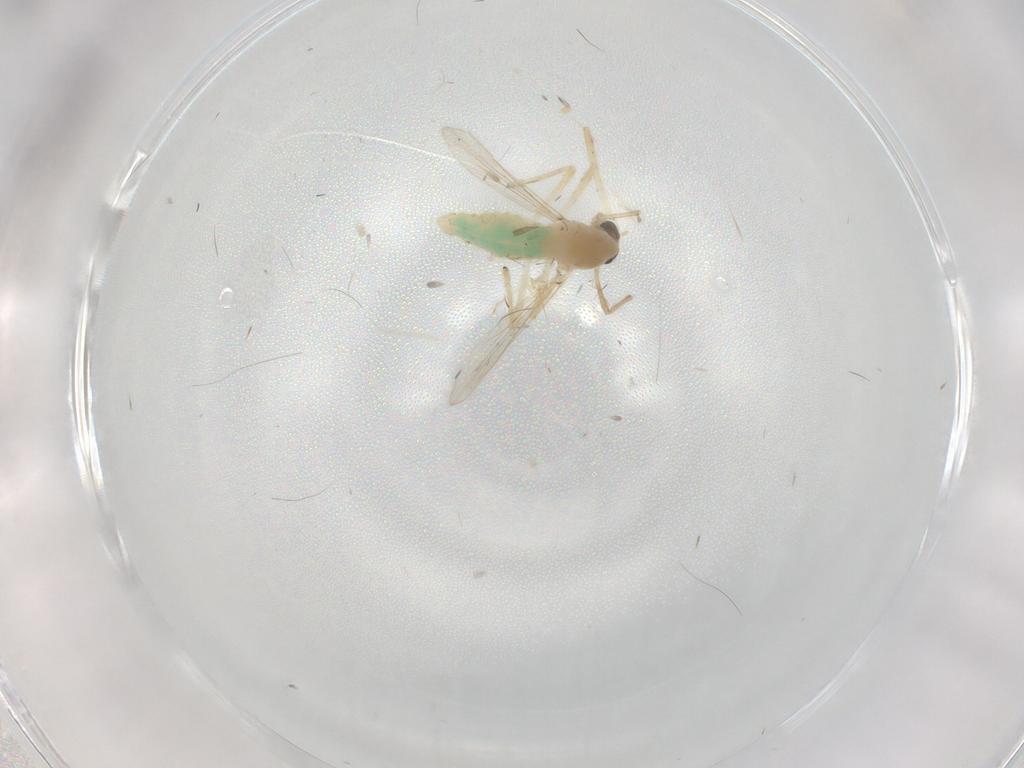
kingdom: Animalia
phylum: Arthropoda
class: Insecta
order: Diptera
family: Chironomidae
